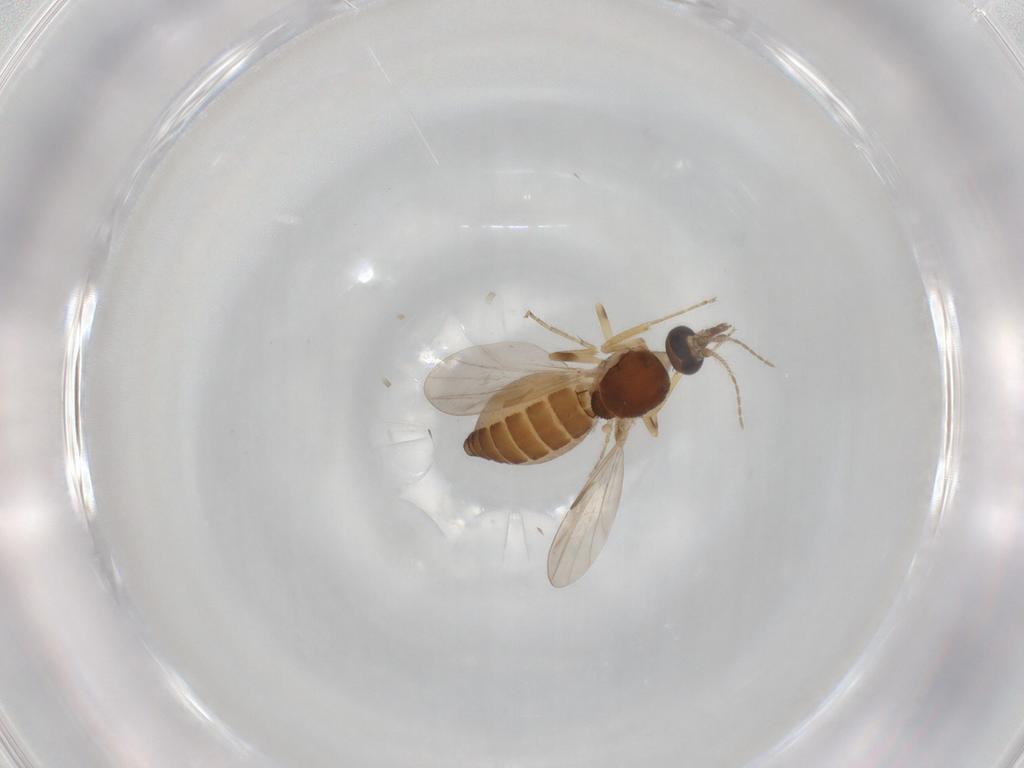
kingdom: Animalia
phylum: Arthropoda
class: Insecta
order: Diptera
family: Ceratopogonidae
